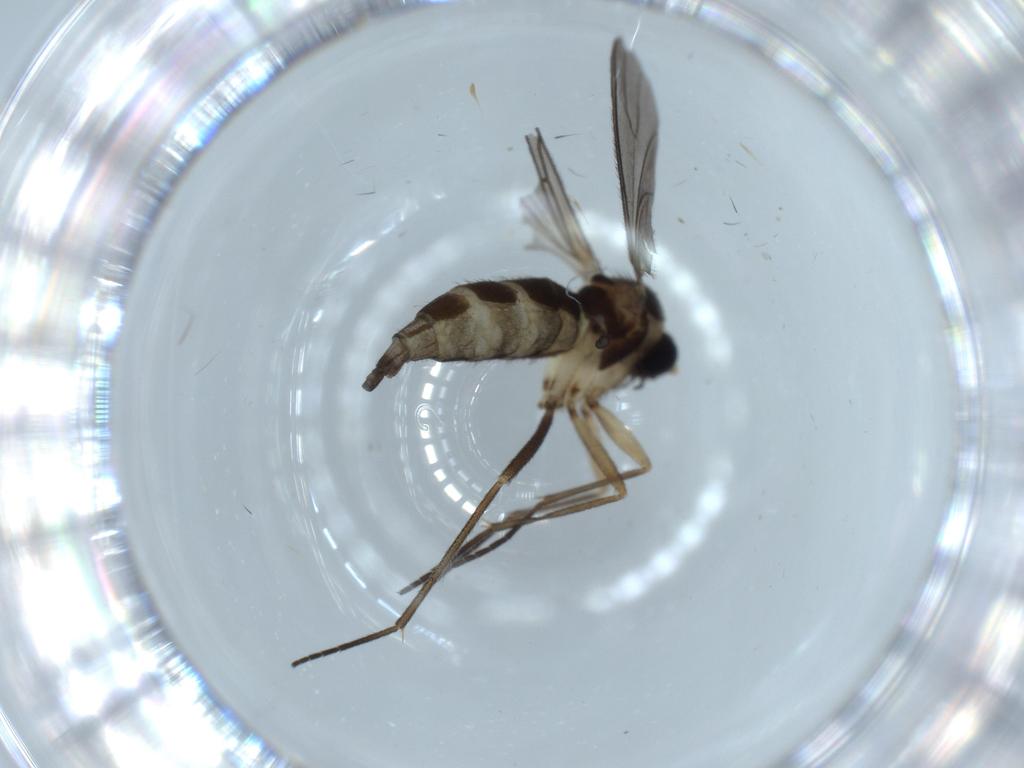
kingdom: Animalia
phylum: Arthropoda
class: Insecta
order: Diptera
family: Sciaridae
